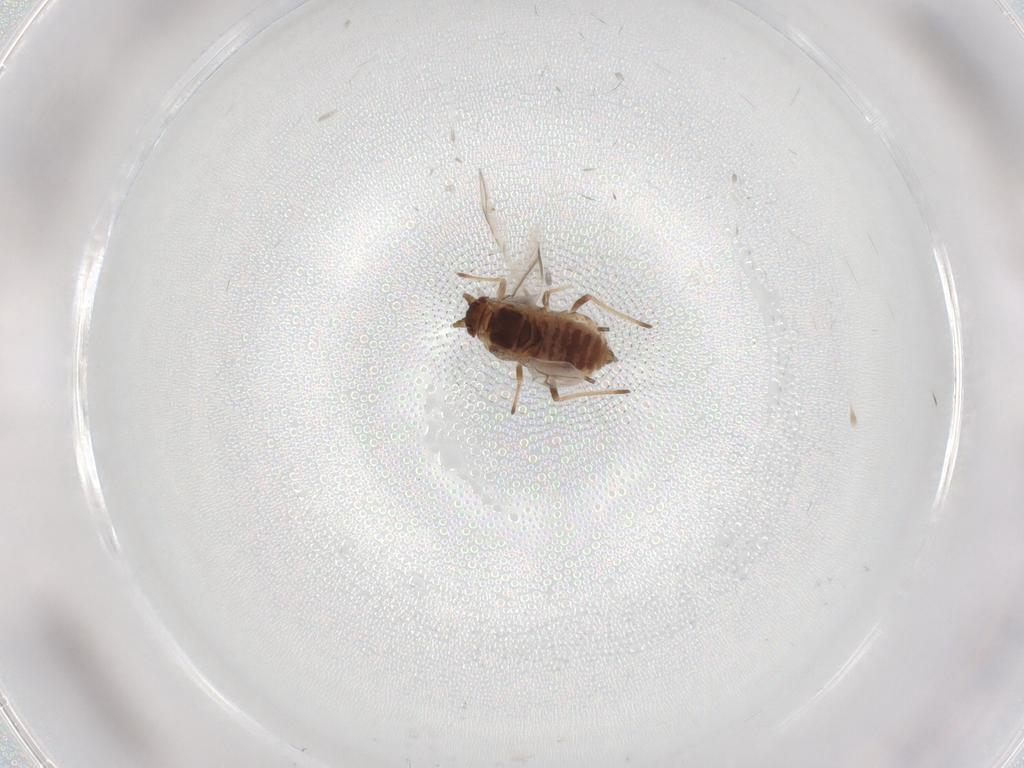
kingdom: Animalia
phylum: Arthropoda
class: Insecta
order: Hemiptera
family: Aphididae
